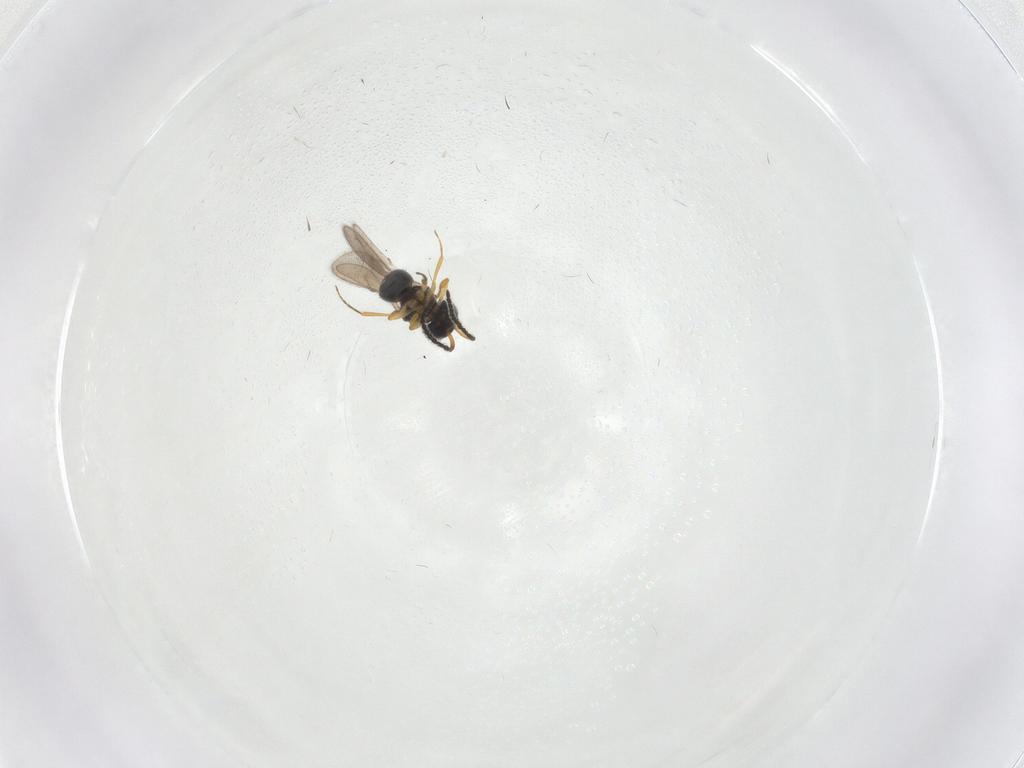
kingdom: Animalia
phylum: Arthropoda
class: Insecta
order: Hymenoptera
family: Scelionidae
